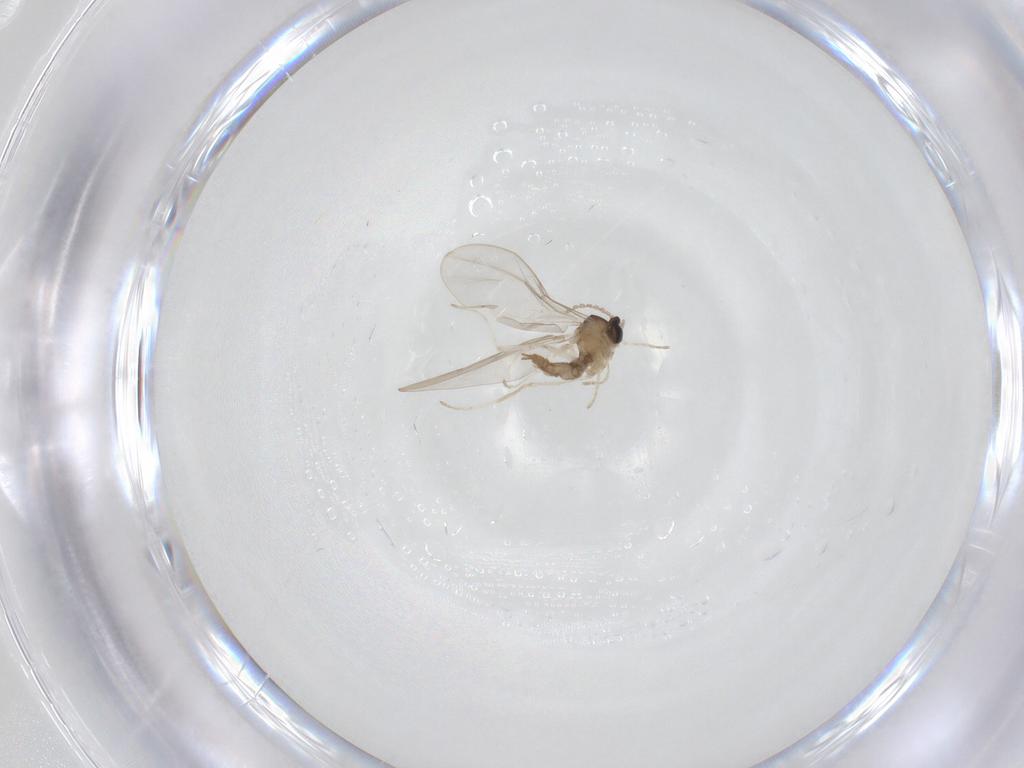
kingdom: Animalia
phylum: Arthropoda
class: Insecta
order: Diptera
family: Cecidomyiidae
